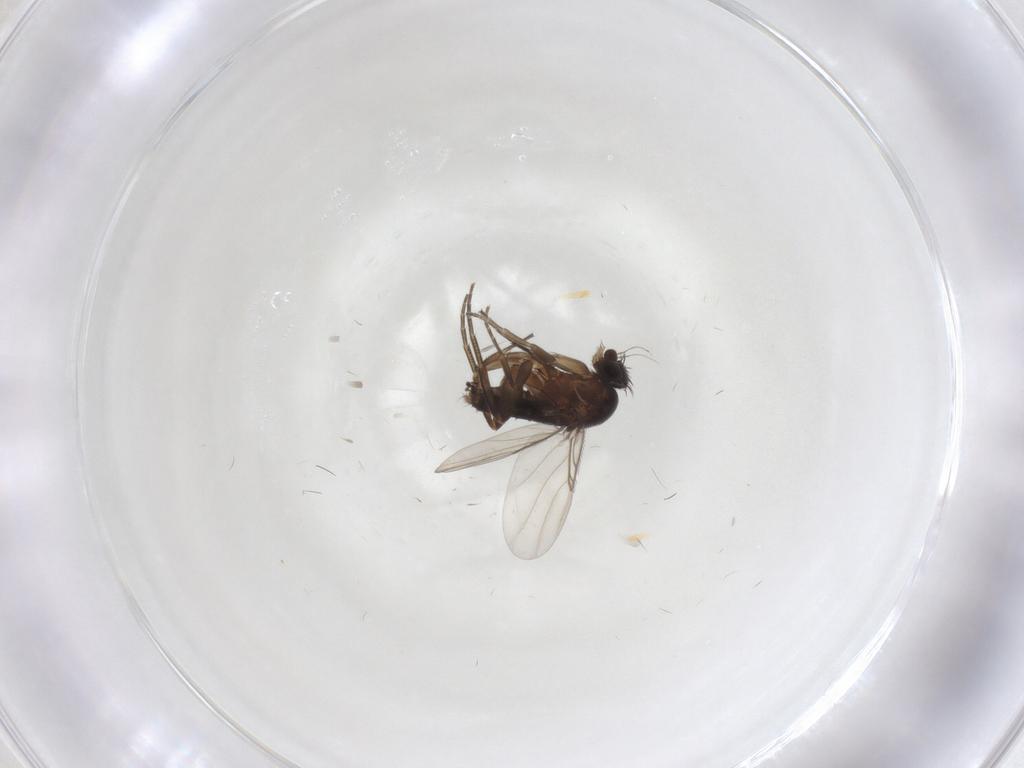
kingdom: Animalia
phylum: Arthropoda
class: Insecta
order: Diptera
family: Phoridae
